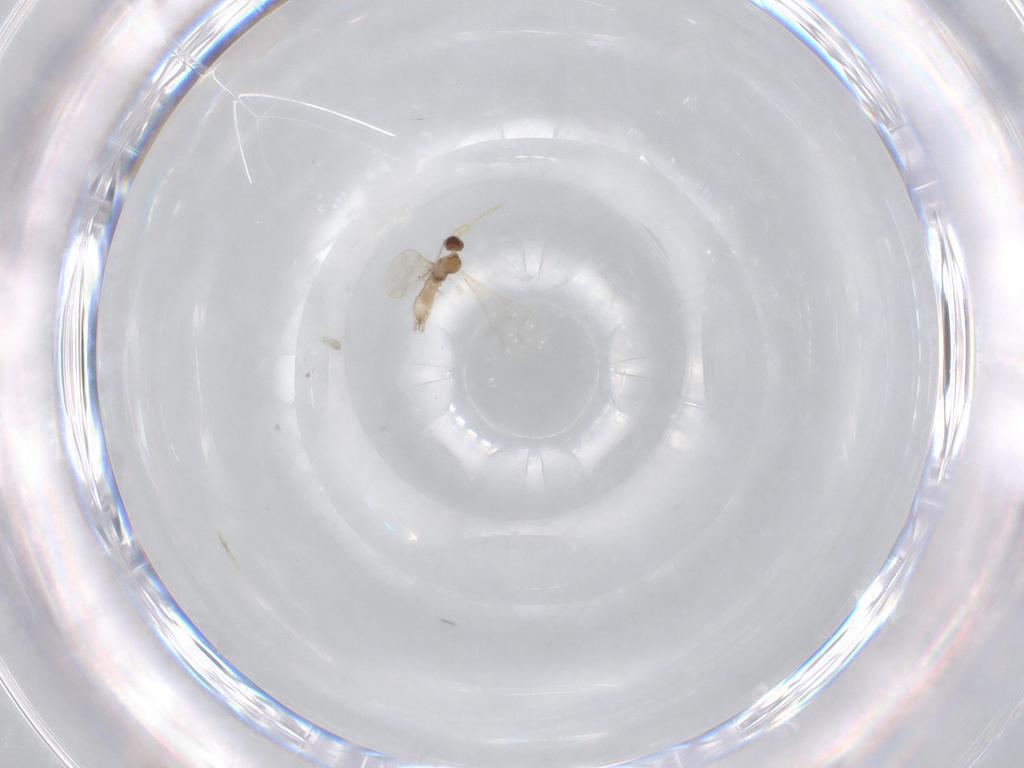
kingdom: Animalia
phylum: Arthropoda
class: Insecta
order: Diptera
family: Cecidomyiidae
